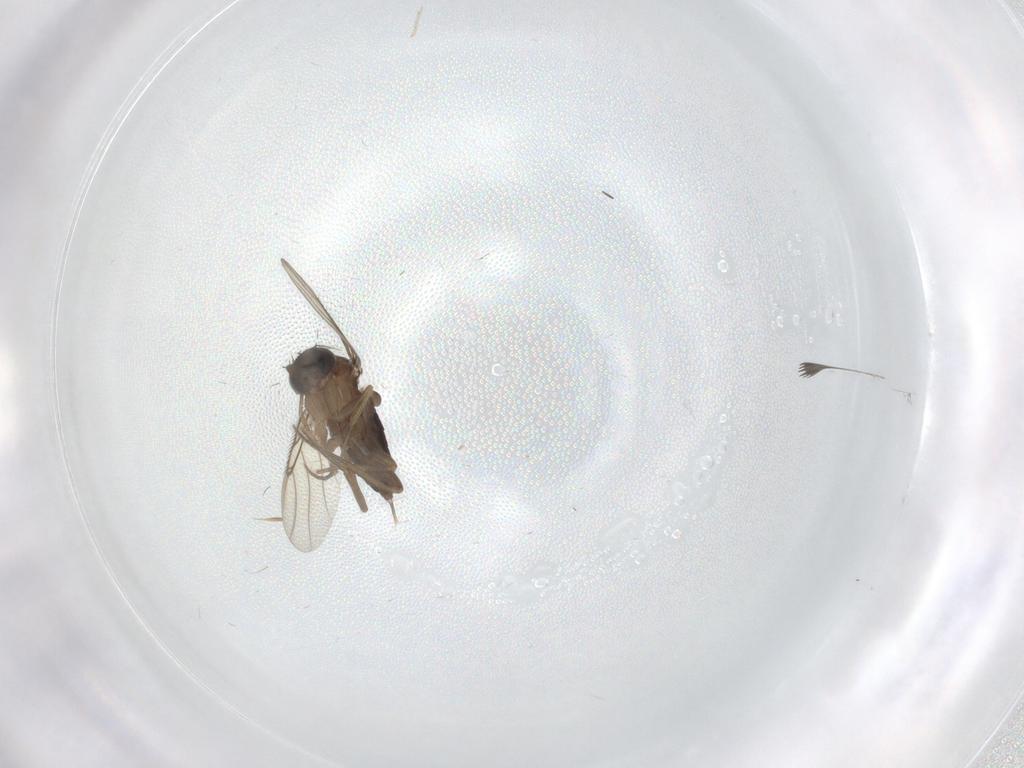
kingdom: Animalia
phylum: Arthropoda
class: Insecta
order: Diptera
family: Ceratopogonidae
